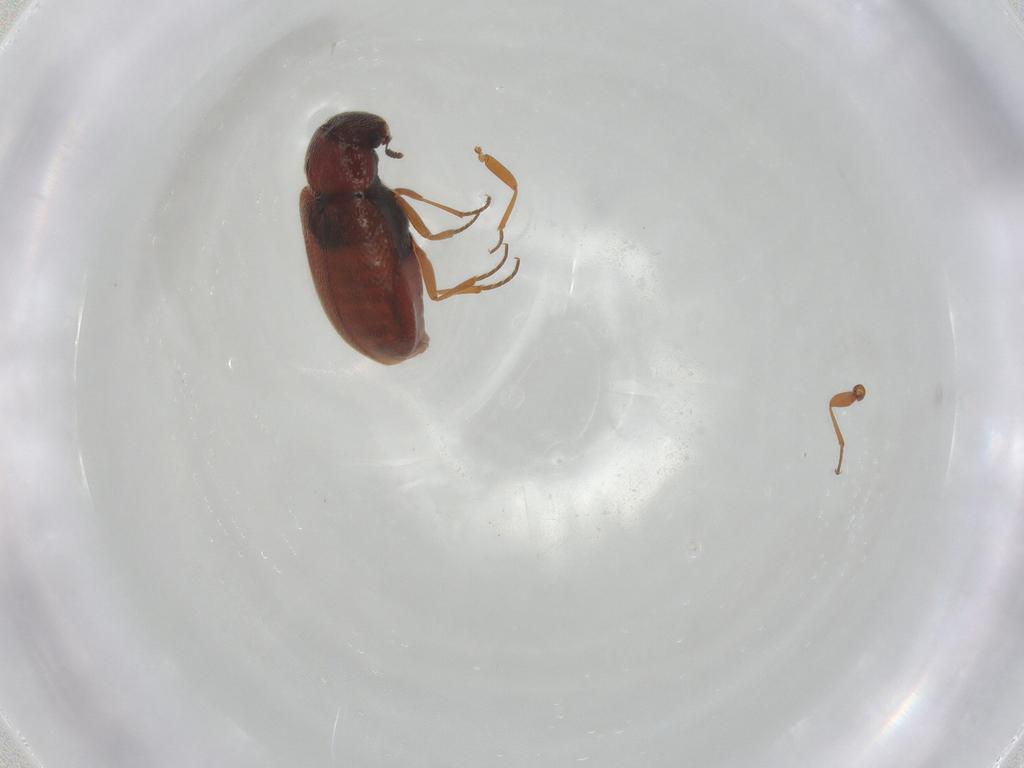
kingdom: Animalia
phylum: Arthropoda
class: Insecta
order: Coleoptera
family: Rhadalidae
